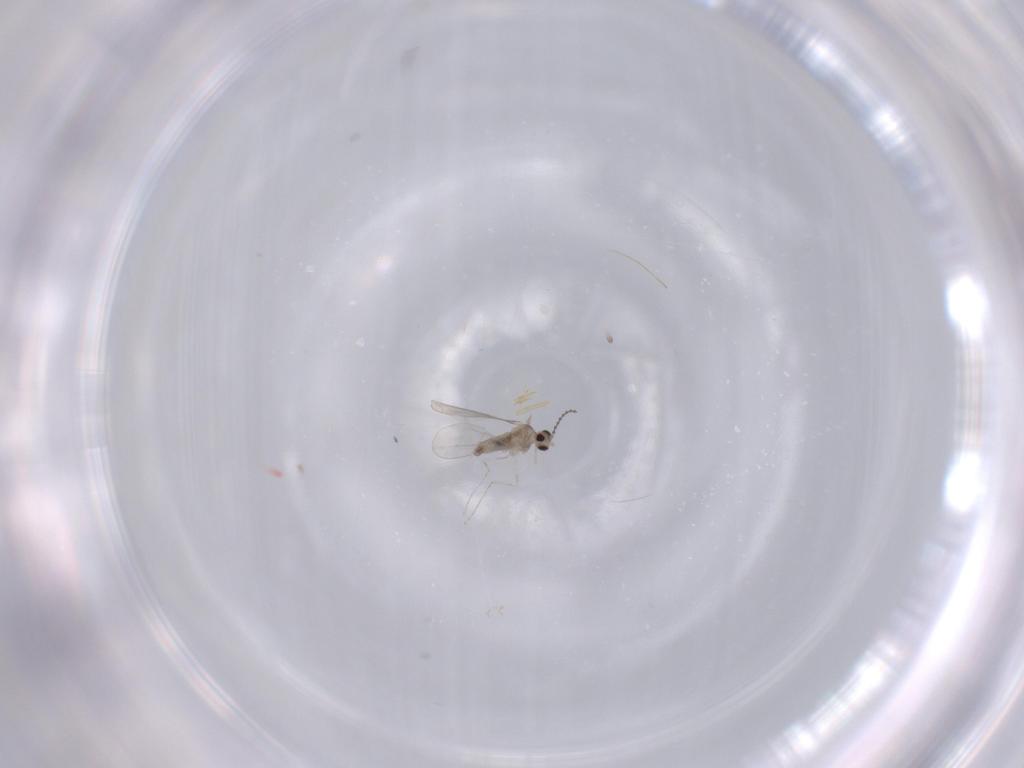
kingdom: Animalia
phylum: Arthropoda
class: Insecta
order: Diptera
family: Cecidomyiidae
